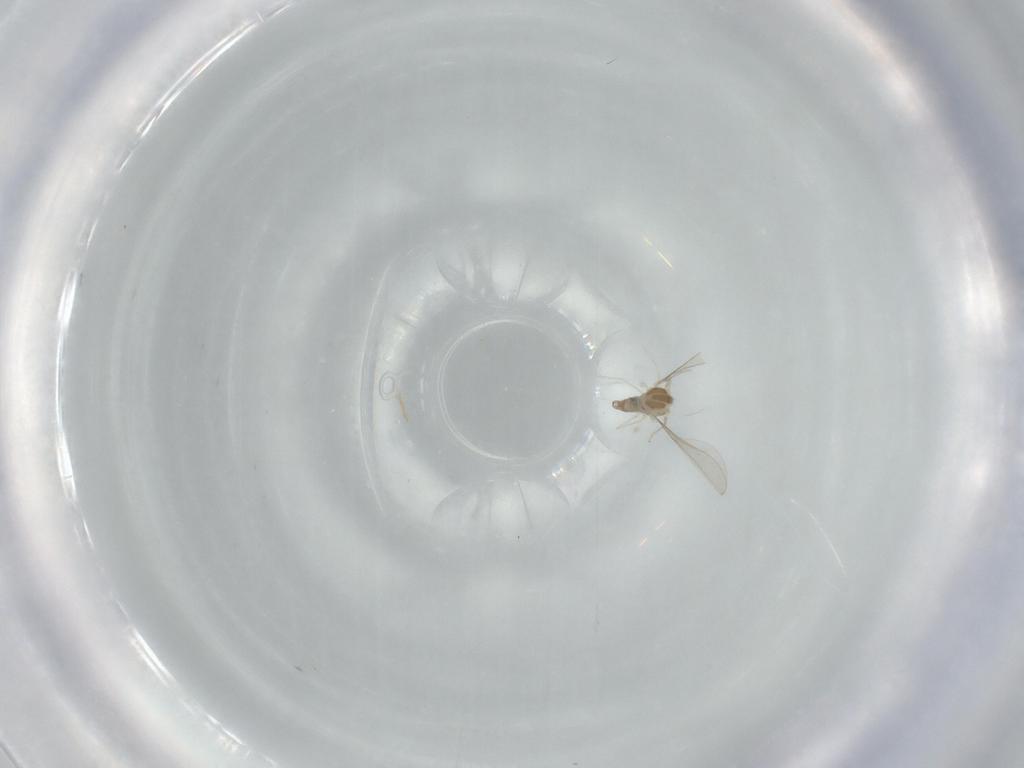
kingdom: Animalia
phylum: Arthropoda
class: Insecta
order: Diptera
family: Cecidomyiidae
